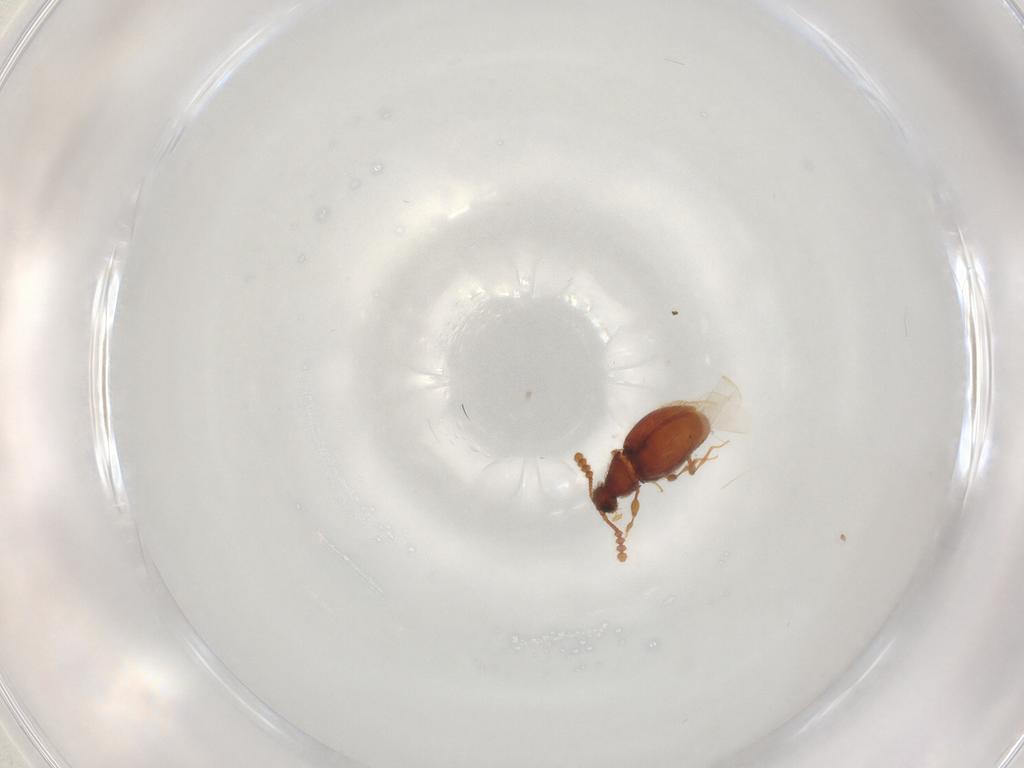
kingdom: Animalia
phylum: Arthropoda
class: Insecta
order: Coleoptera
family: Staphylinidae
